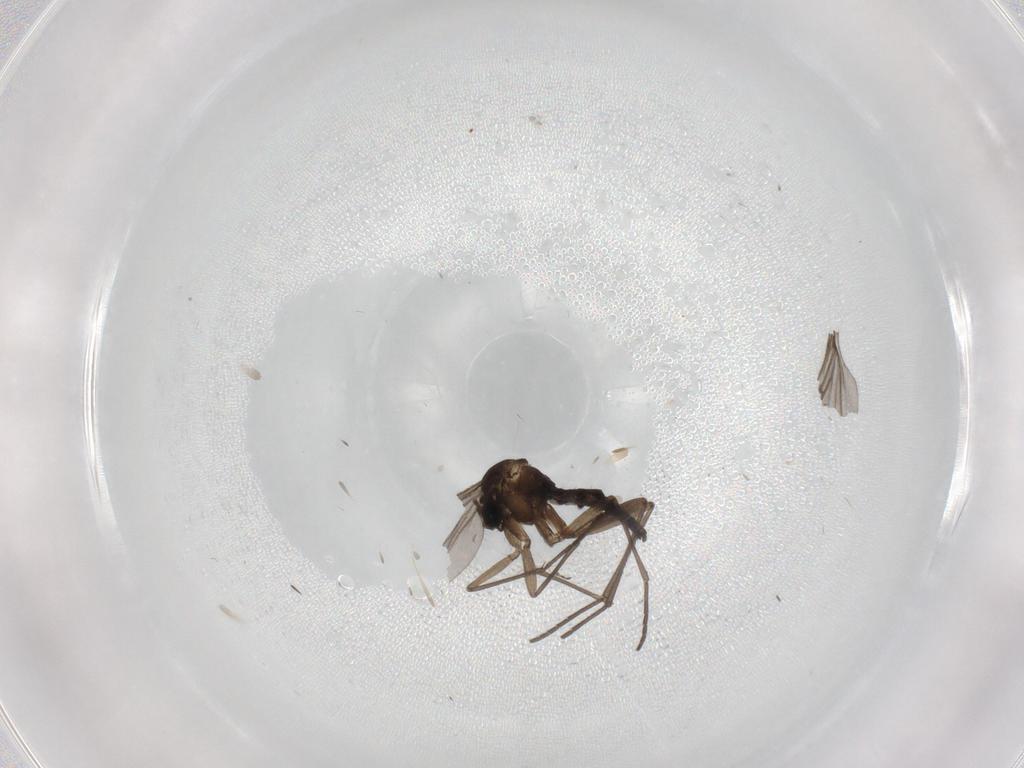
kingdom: Animalia
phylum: Arthropoda
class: Insecta
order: Diptera
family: Sciaridae
